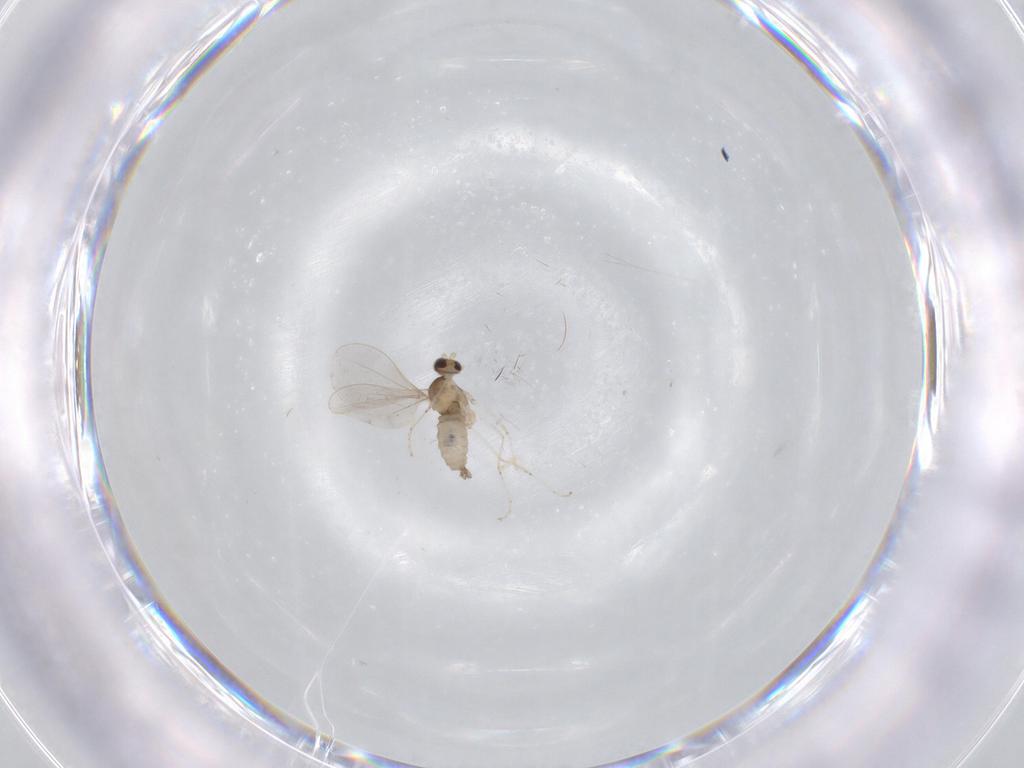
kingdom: Animalia
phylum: Arthropoda
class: Insecta
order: Diptera
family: Cecidomyiidae
